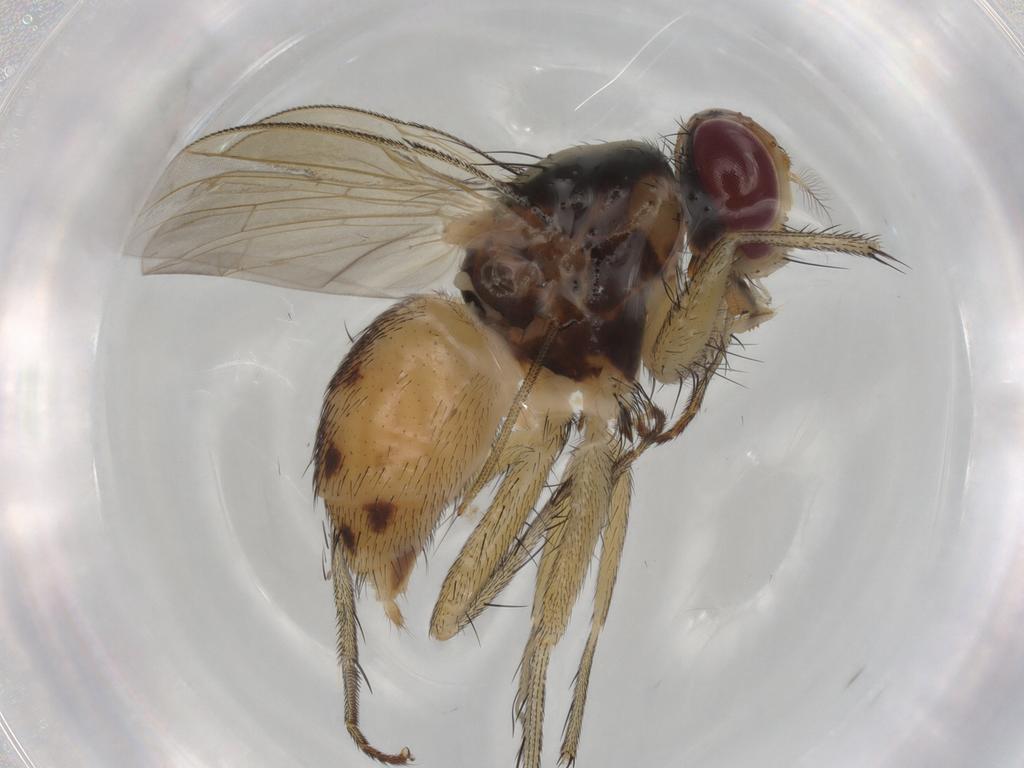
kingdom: Animalia
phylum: Arthropoda
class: Insecta
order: Diptera
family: Muscidae
